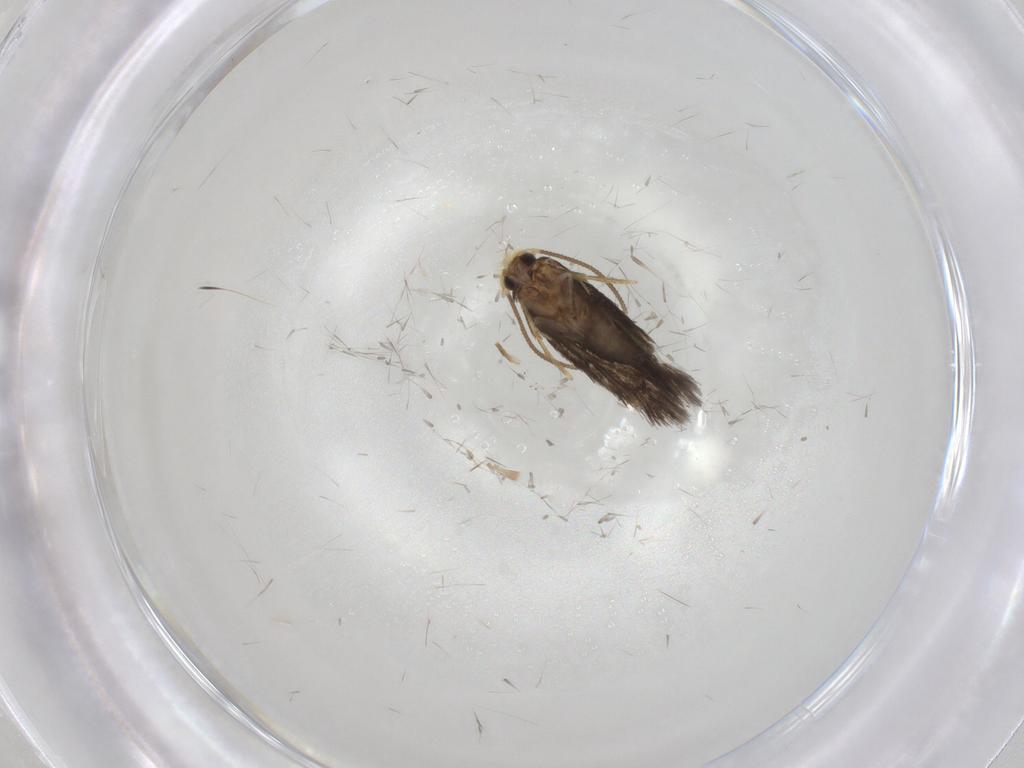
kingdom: Animalia
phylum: Arthropoda
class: Insecta
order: Lepidoptera
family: Nepticulidae
